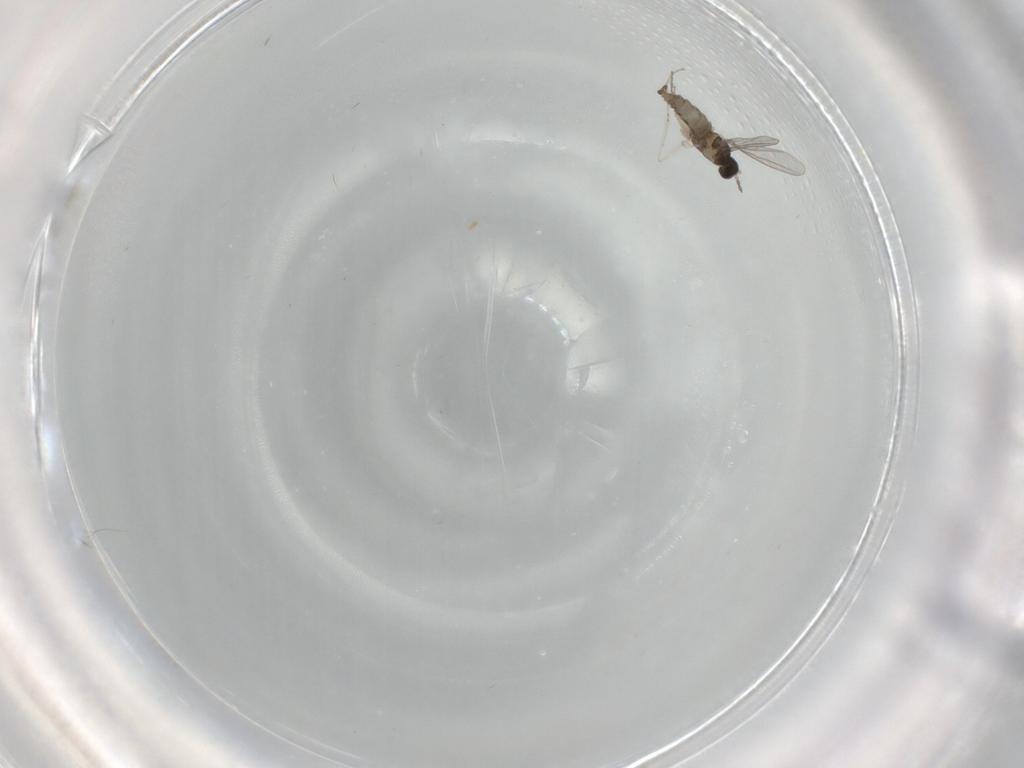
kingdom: Animalia
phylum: Arthropoda
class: Insecta
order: Diptera
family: Cecidomyiidae
